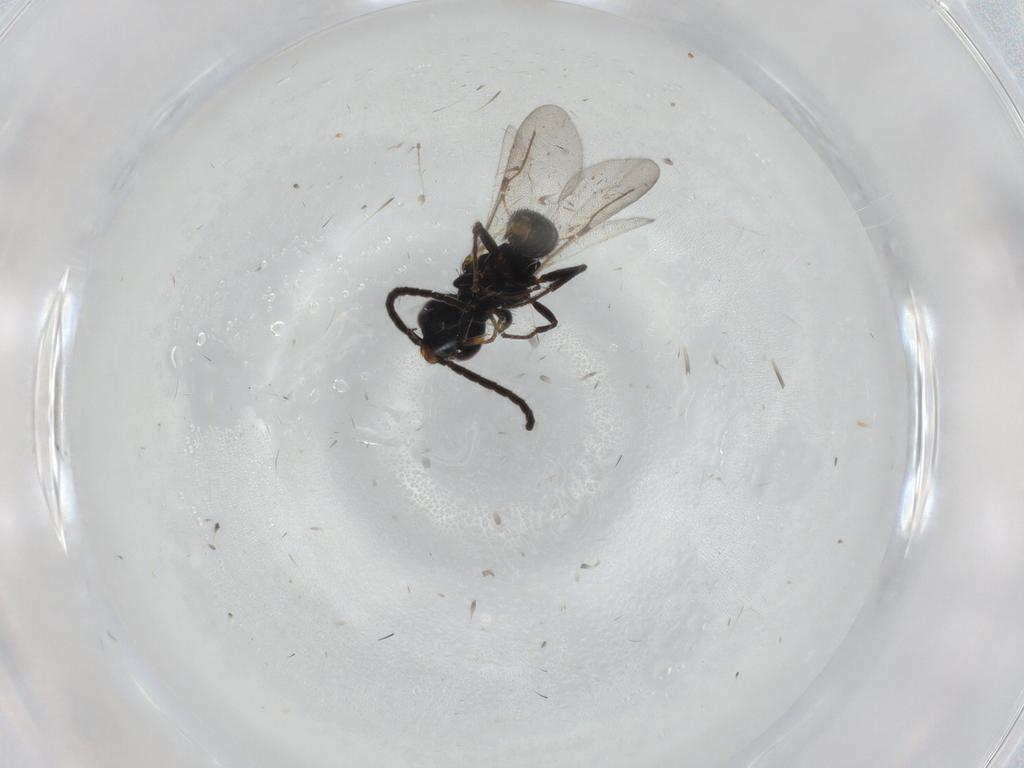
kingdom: Animalia
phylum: Arthropoda
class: Insecta
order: Hymenoptera
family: Bethylidae
